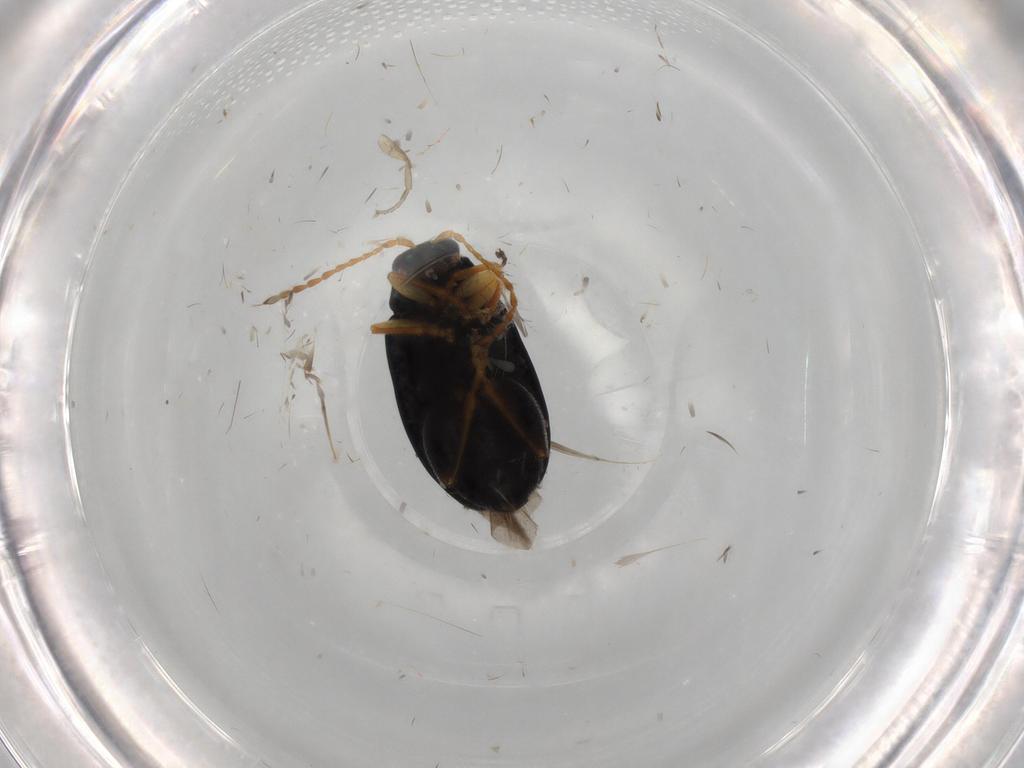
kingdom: Animalia
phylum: Arthropoda
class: Insecta
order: Coleoptera
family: Chrysomelidae
